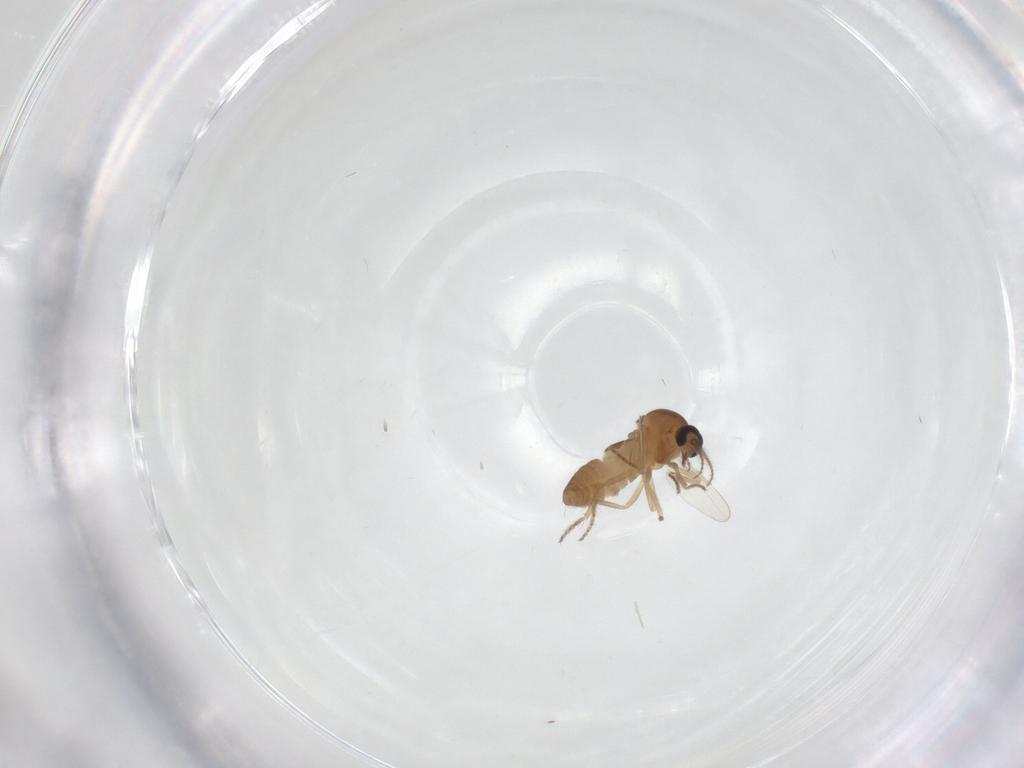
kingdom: Animalia
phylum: Arthropoda
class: Insecta
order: Diptera
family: Ceratopogonidae
